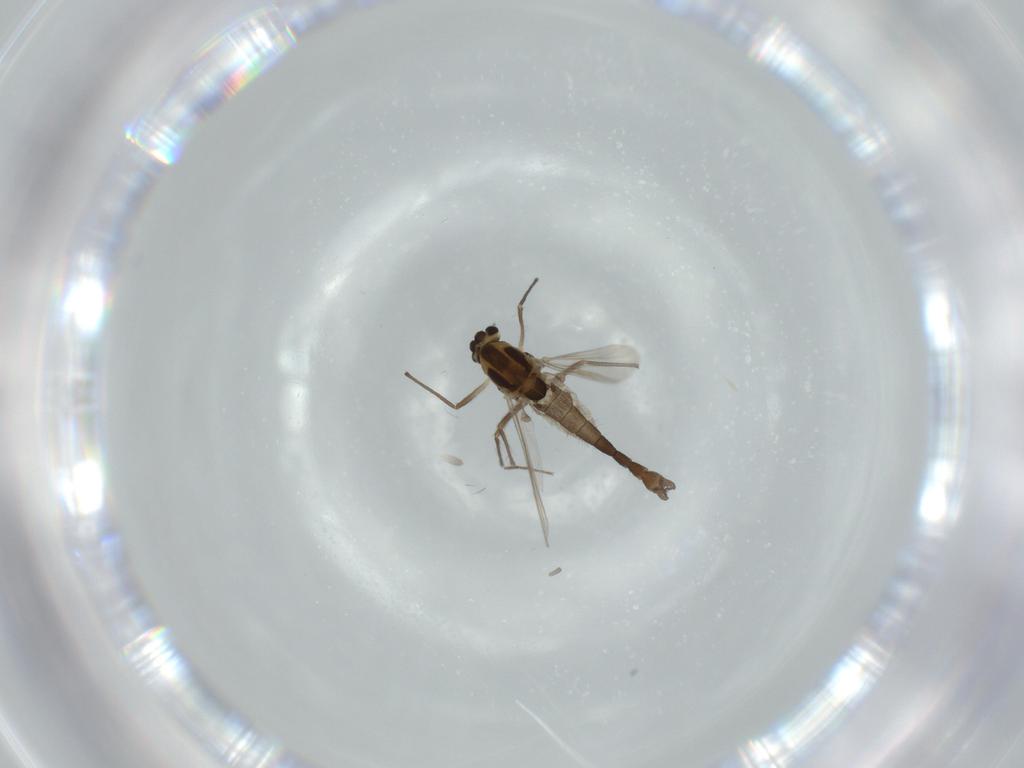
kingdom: Animalia
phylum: Arthropoda
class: Insecta
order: Diptera
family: Chironomidae
